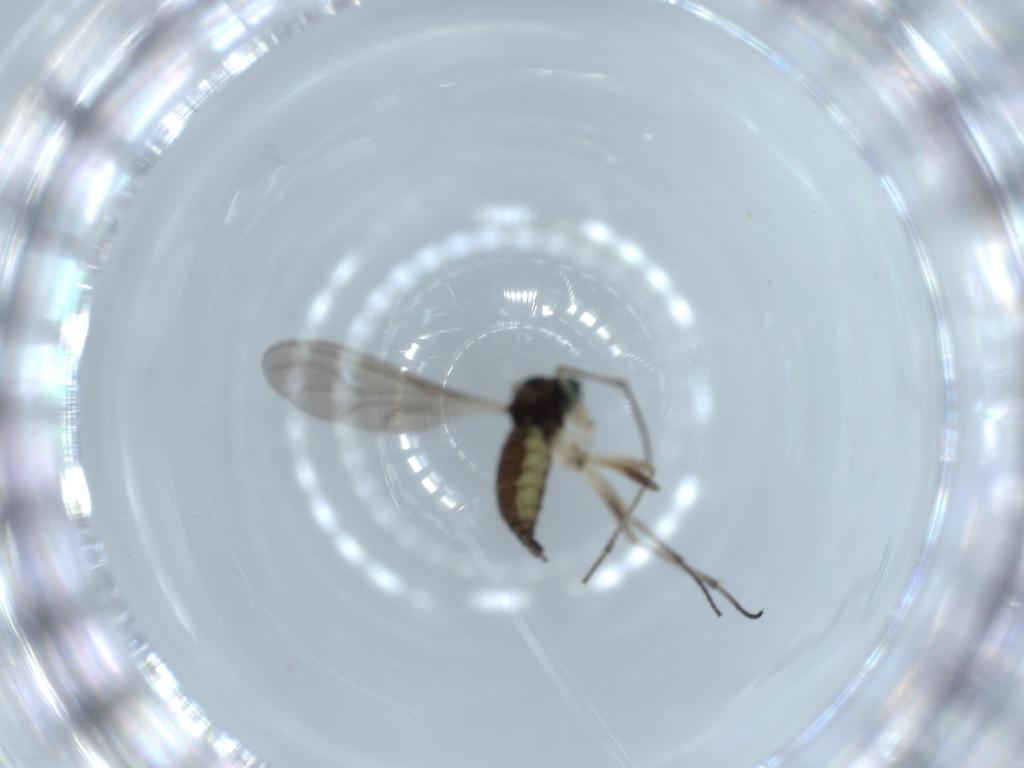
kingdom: Animalia
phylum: Arthropoda
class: Insecta
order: Diptera
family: Sciaridae
